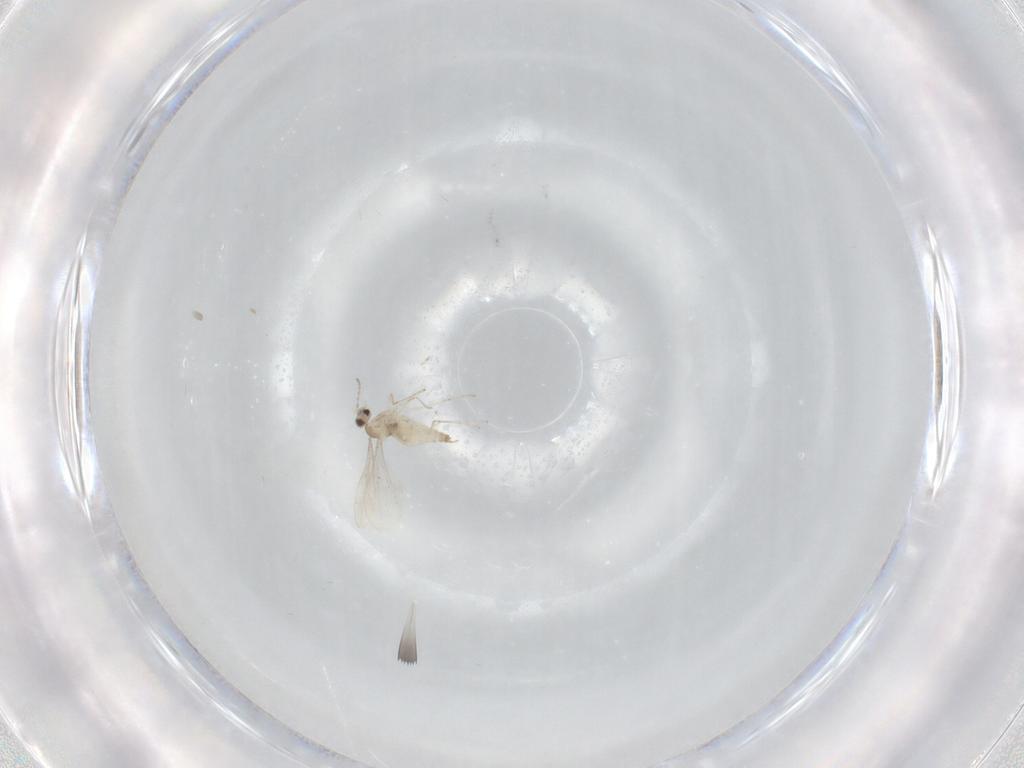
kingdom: Animalia
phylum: Arthropoda
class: Insecta
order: Diptera
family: Cecidomyiidae
